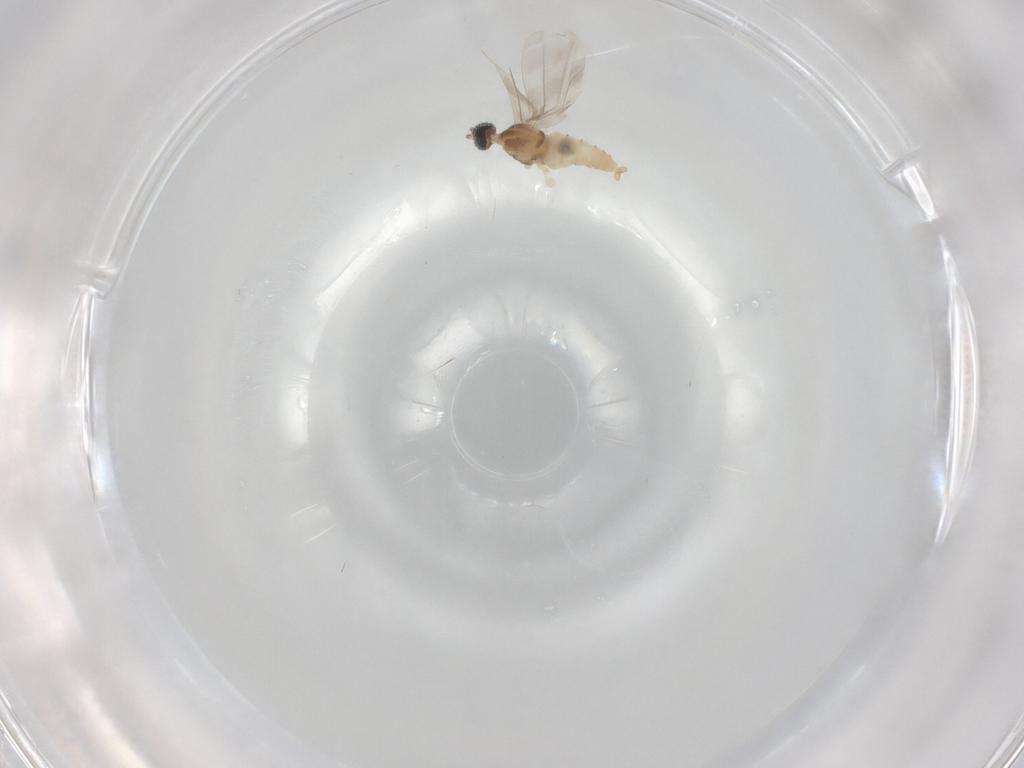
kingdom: Animalia
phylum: Arthropoda
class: Insecta
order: Diptera
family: Cecidomyiidae
